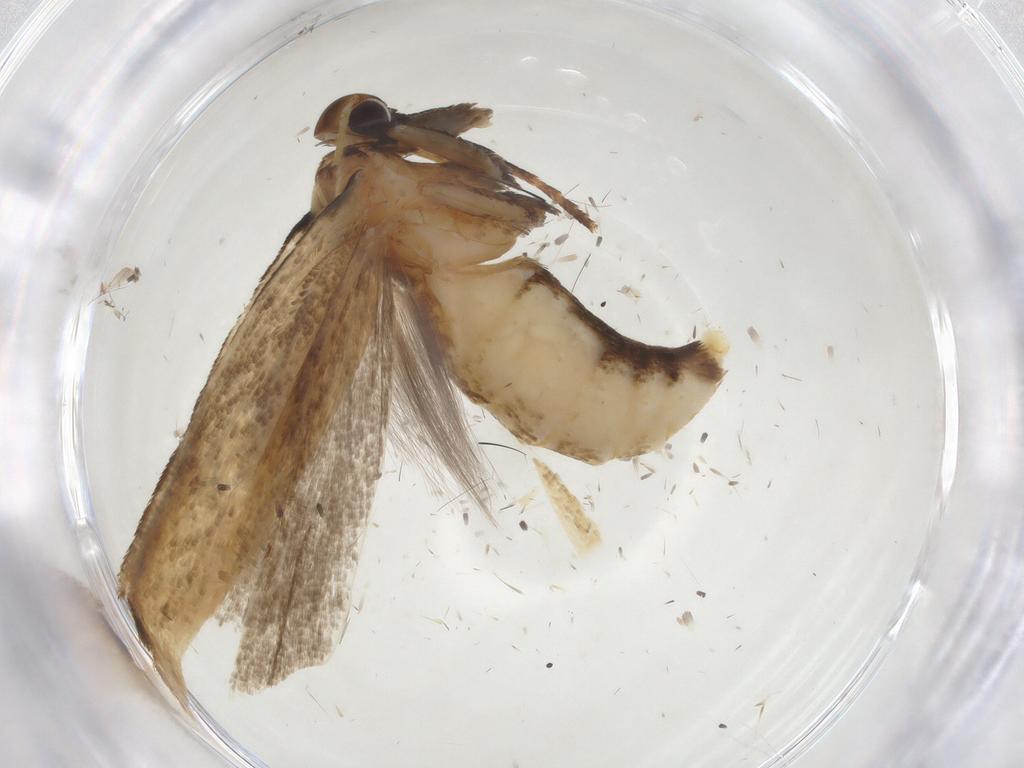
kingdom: Animalia
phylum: Arthropoda
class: Insecta
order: Lepidoptera
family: Gelechiidae
